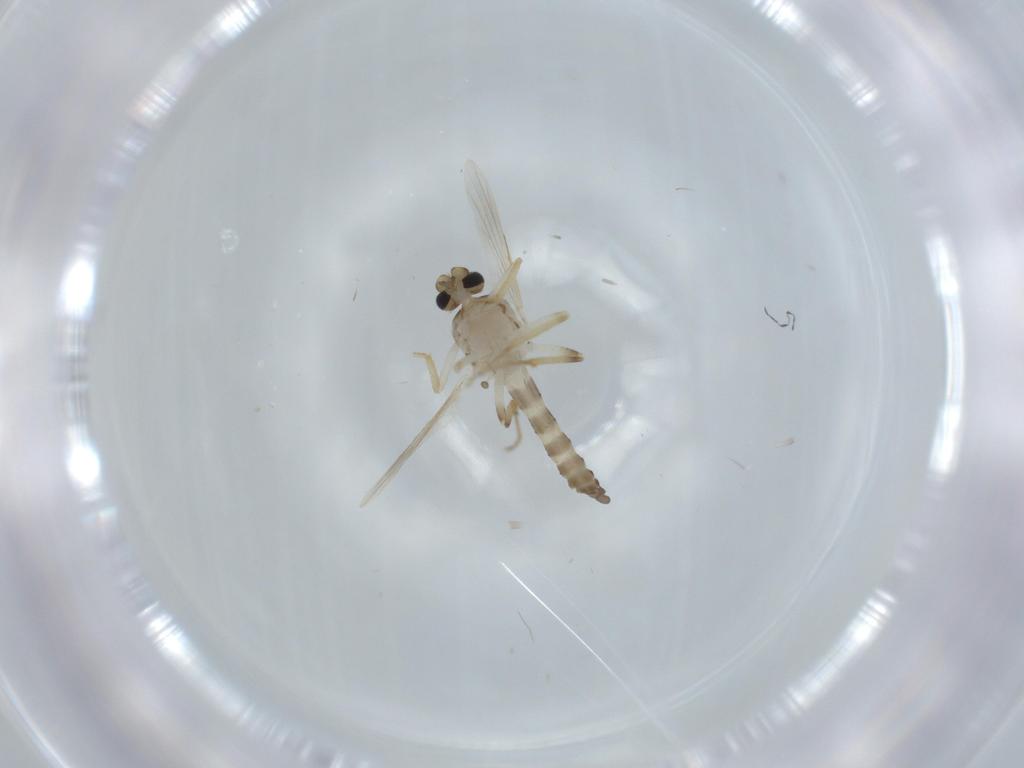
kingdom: Animalia
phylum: Arthropoda
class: Insecta
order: Diptera
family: Ceratopogonidae
